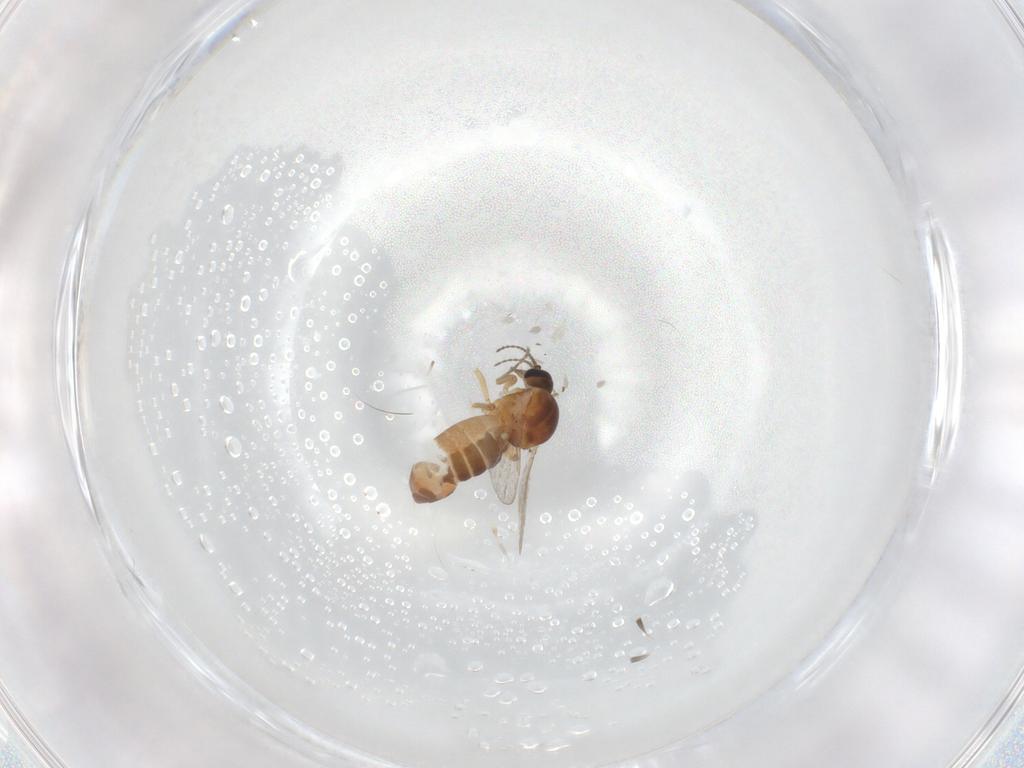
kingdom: Animalia
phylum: Arthropoda
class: Insecta
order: Diptera
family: Ceratopogonidae
